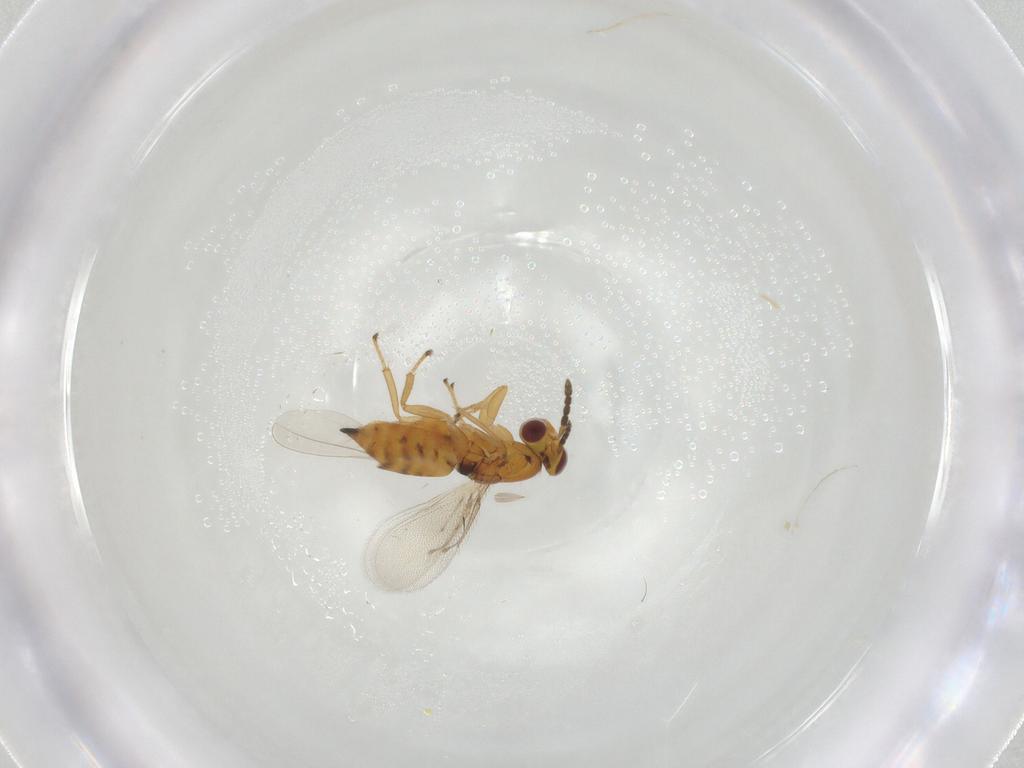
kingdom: Animalia
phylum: Arthropoda
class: Insecta
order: Hymenoptera
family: Eulophidae
